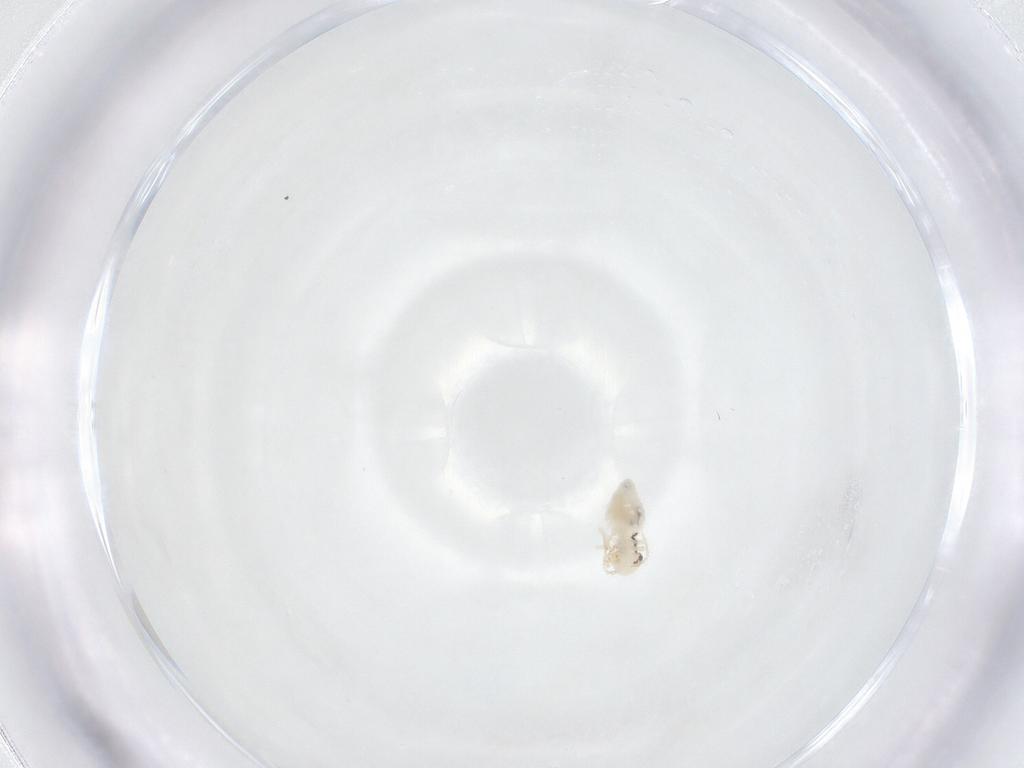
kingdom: Animalia
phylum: Arthropoda
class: Insecta
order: Psocodea
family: Caeciliusidae
